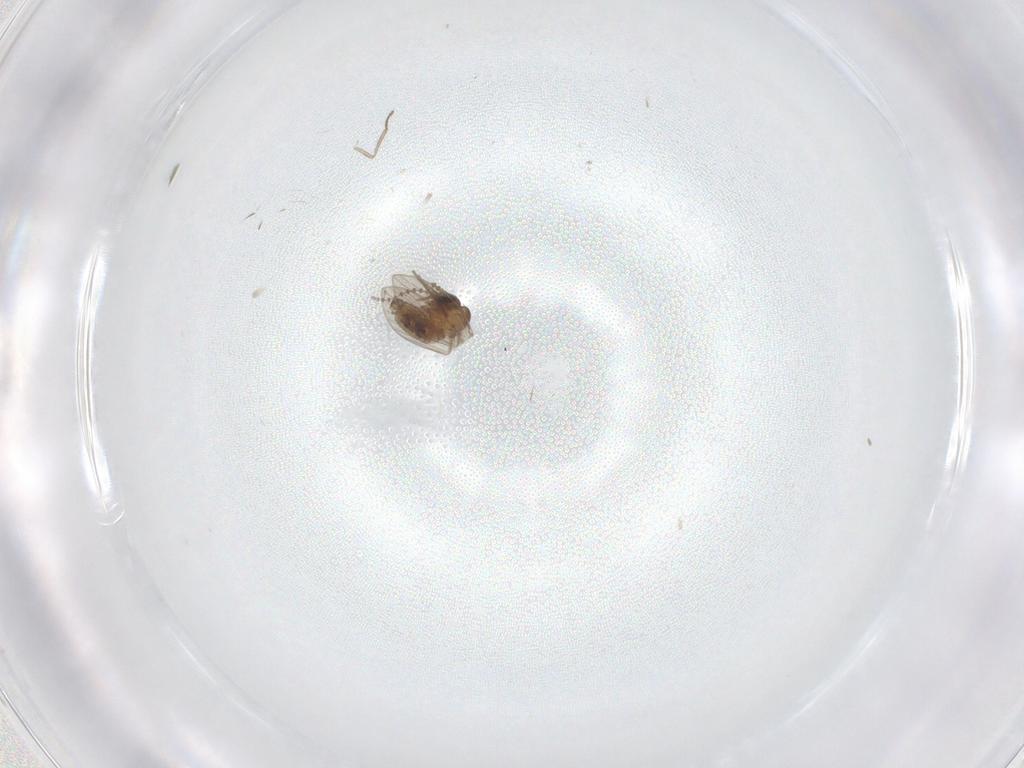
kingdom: Animalia
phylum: Arthropoda
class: Insecta
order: Diptera
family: Psychodidae
